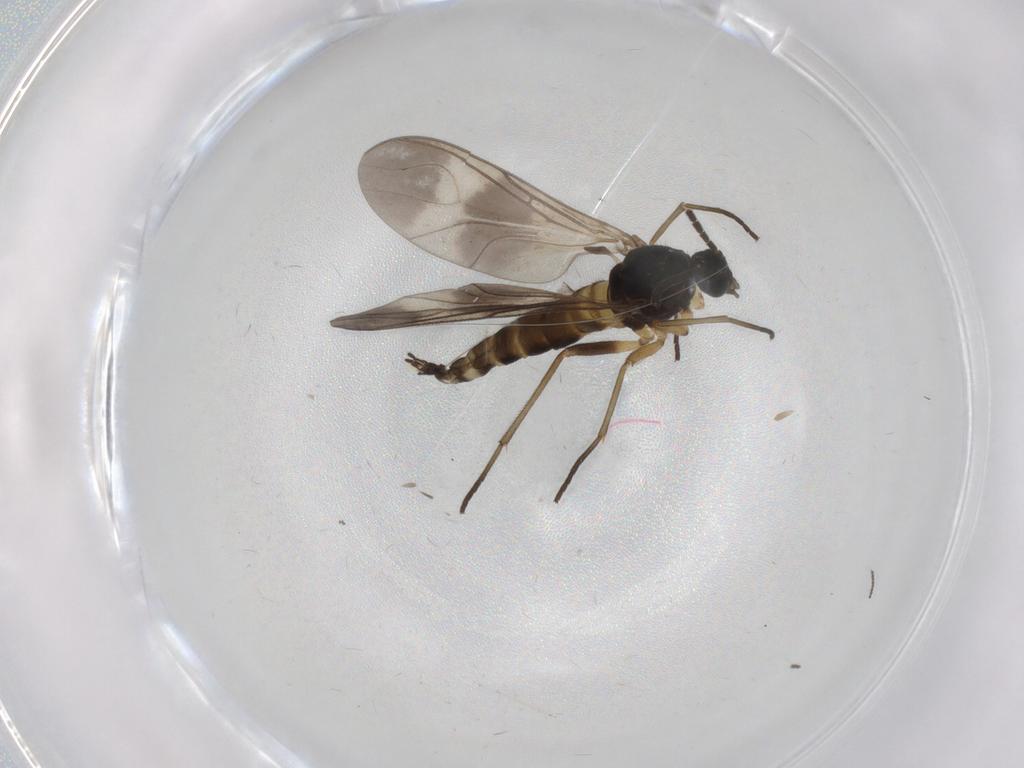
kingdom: Animalia
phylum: Arthropoda
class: Insecta
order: Diptera
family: Sciaridae
